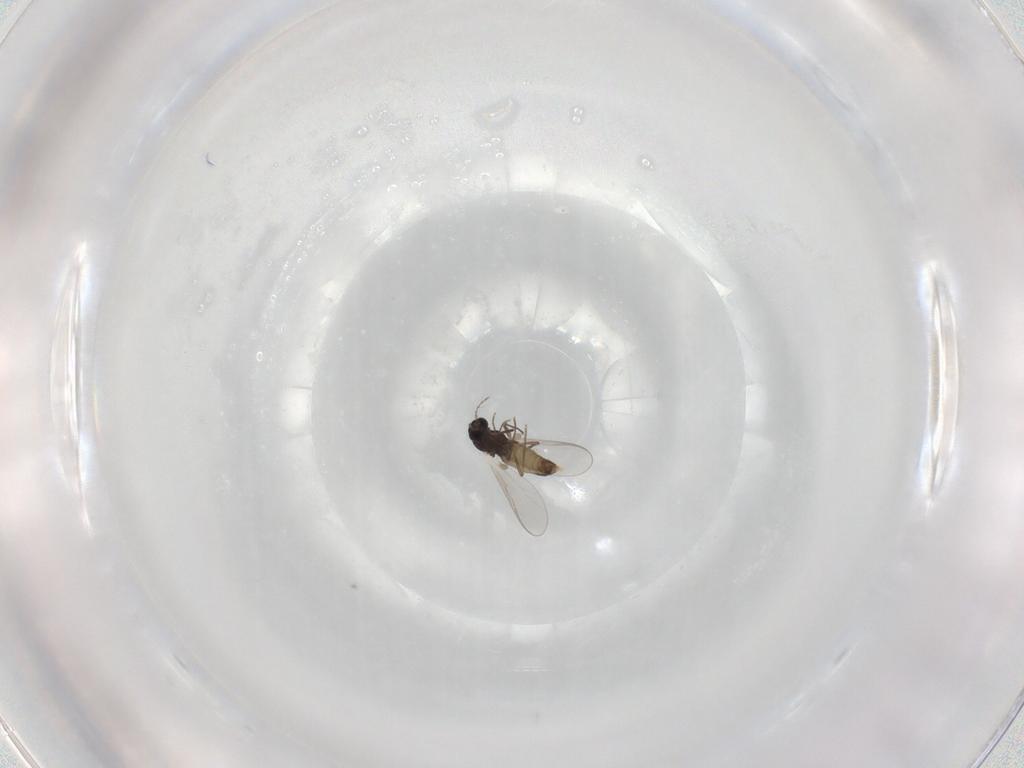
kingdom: Animalia
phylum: Arthropoda
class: Insecta
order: Diptera
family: Chironomidae
